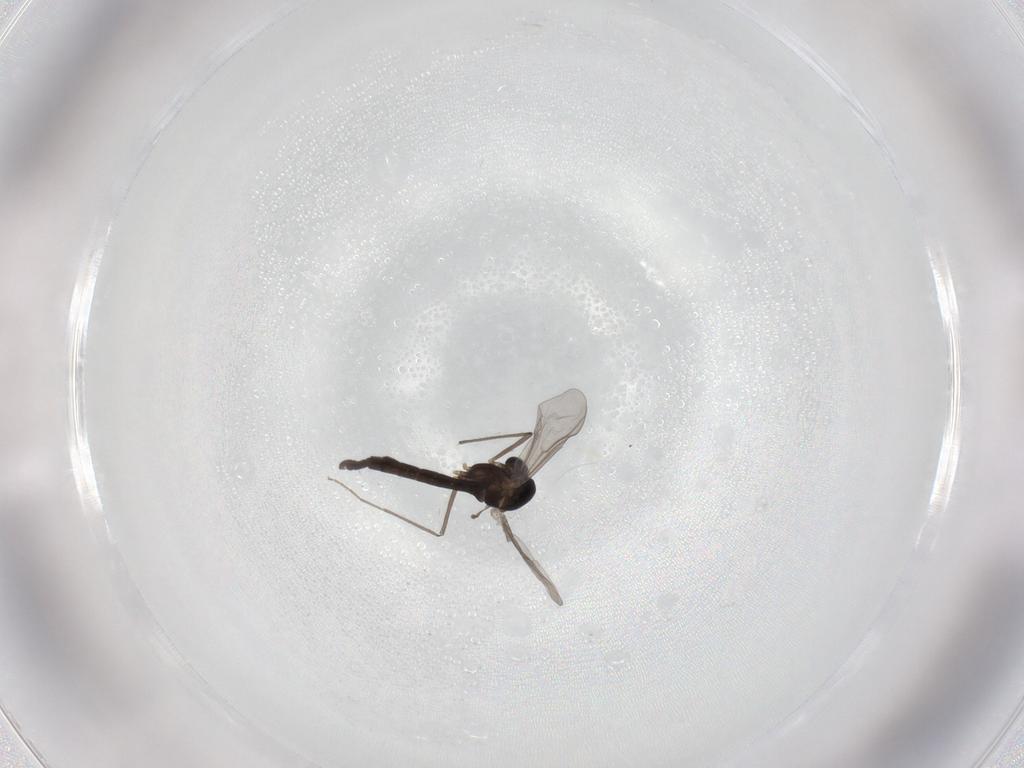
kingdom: Animalia
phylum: Arthropoda
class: Insecta
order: Diptera
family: Chironomidae
